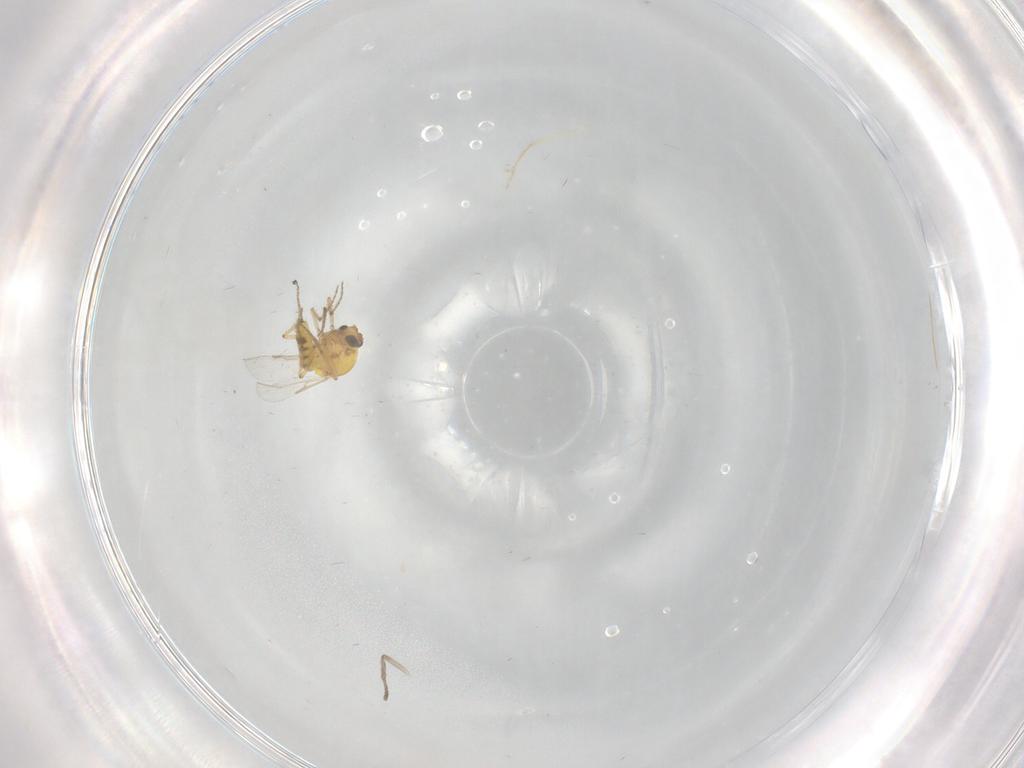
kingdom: Animalia
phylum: Arthropoda
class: Insecta
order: Diptera
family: Ceratopogonidae
